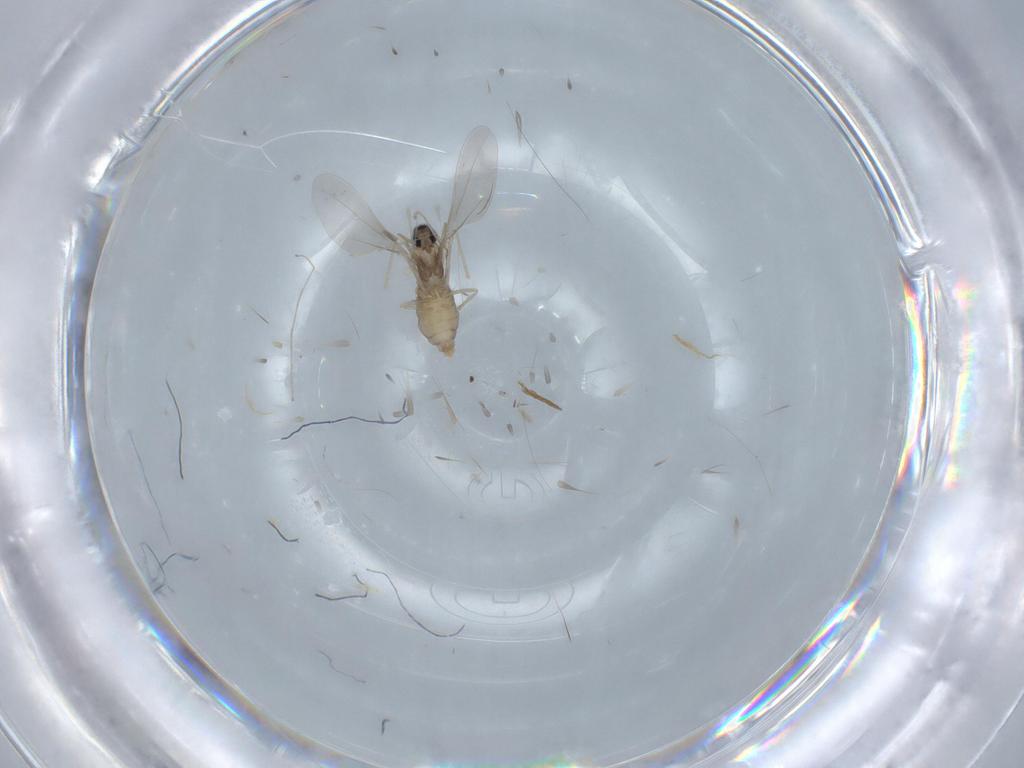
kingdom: Animalia
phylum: Arthropoda
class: Insecta
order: Diptera
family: Cecidomyiidae
